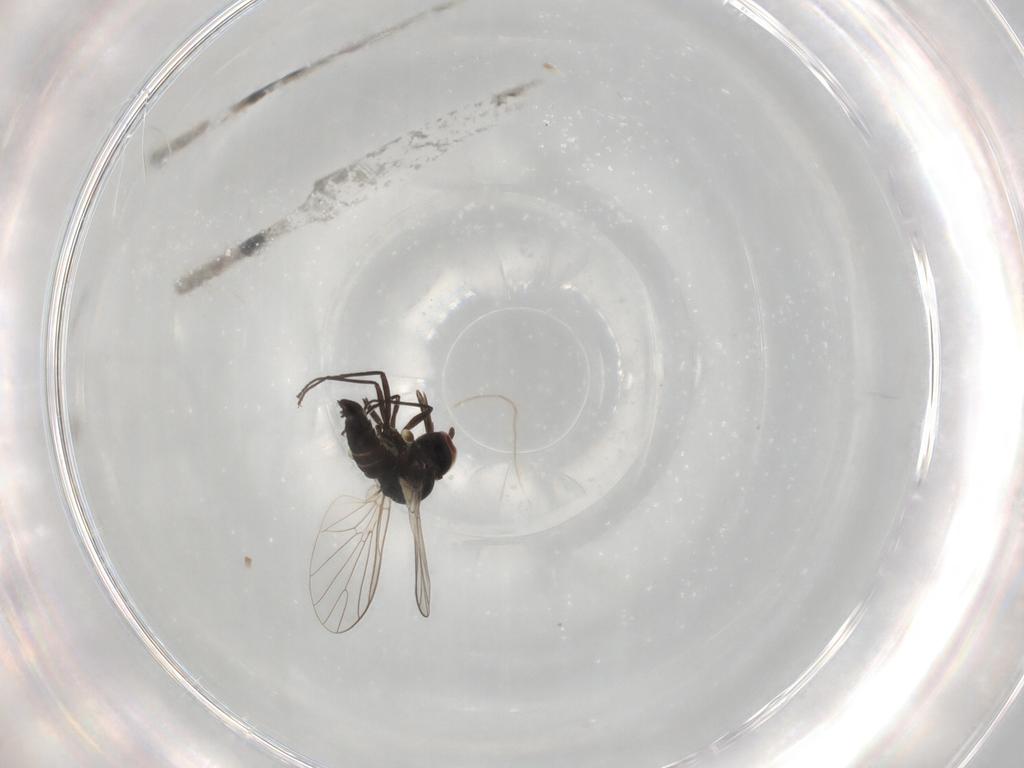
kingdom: Animalia
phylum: Arthropoda
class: Insecta
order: Diptera
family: Bombyliidae
